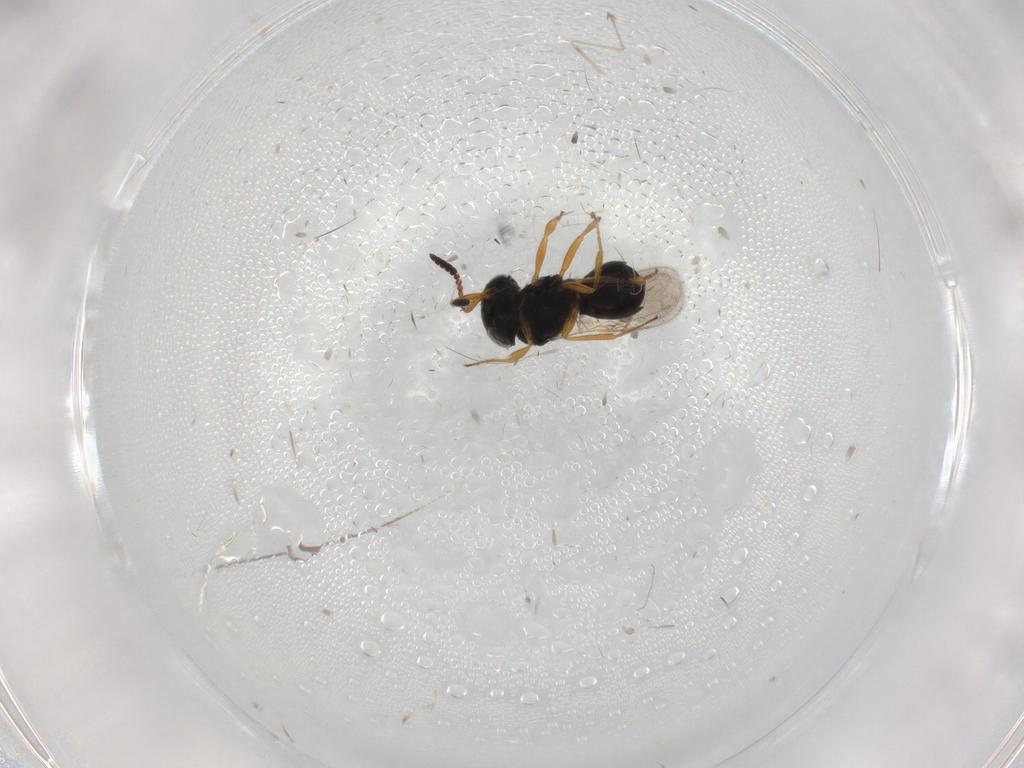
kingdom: Animalia
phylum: Arthropoda
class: Insecta
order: Hymenoptera
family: Scelionidae
